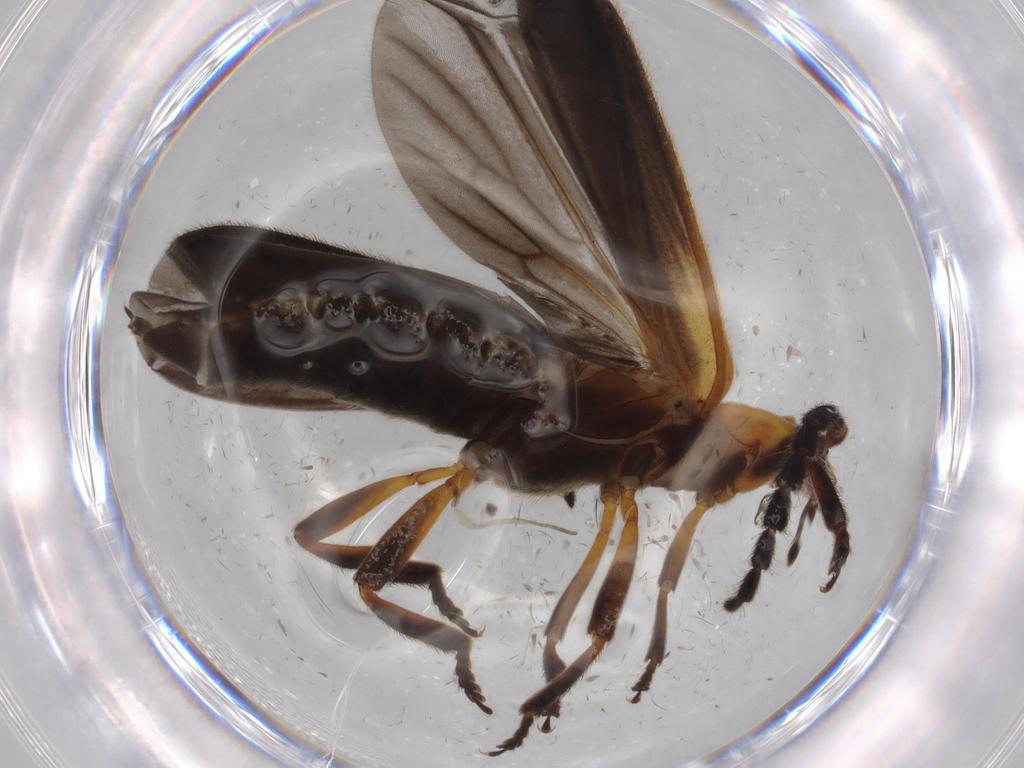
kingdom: Animalia
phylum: Arthropoda
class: Insecta
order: Coleoptera
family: Lycidae
